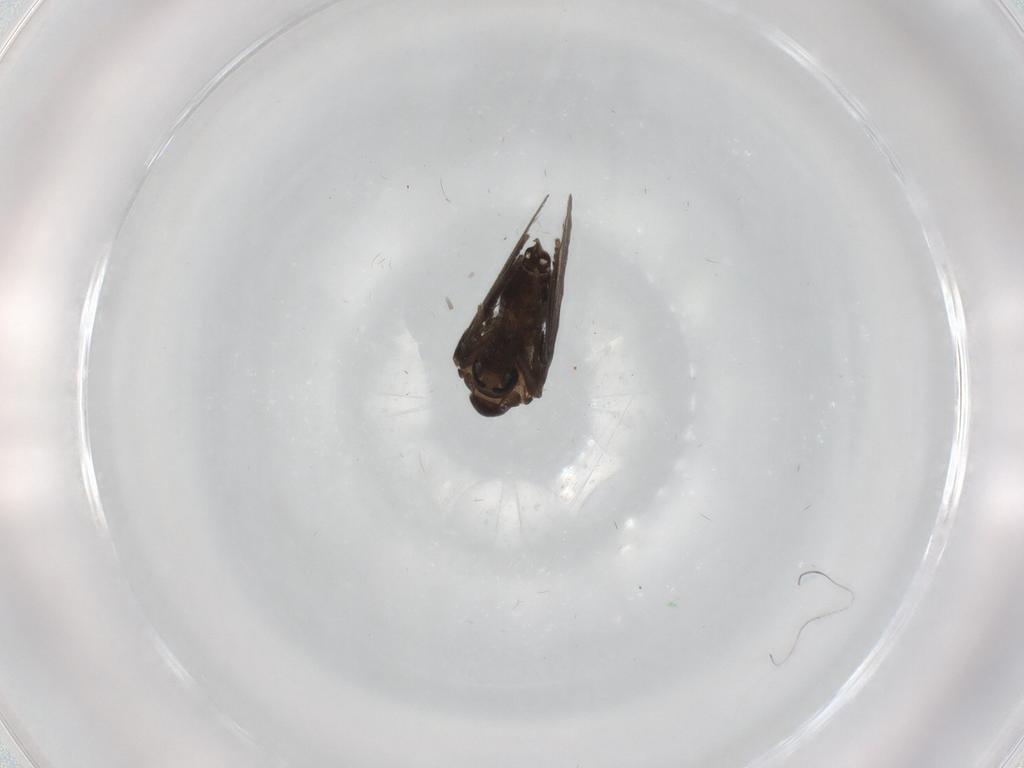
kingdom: Animalia
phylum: Arthropoda
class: Insecta
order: Diptera
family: Psychodidae
